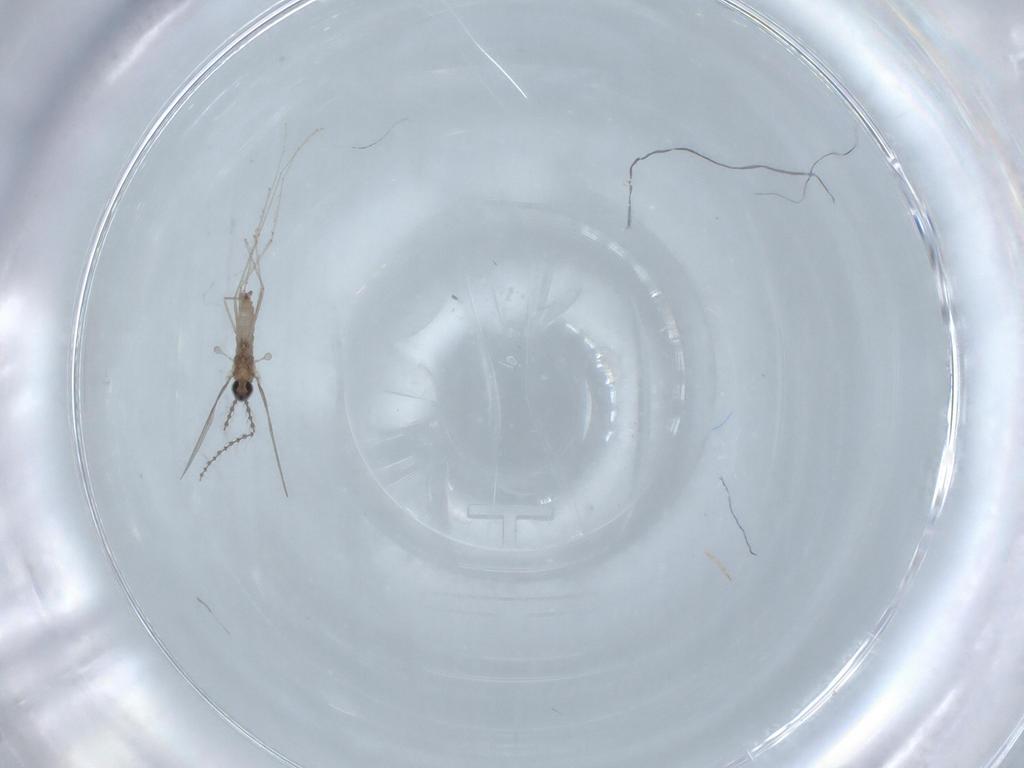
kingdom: Animalia
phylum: Arthropoda
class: Insecta
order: Diptera
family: Cecidomyiidae
